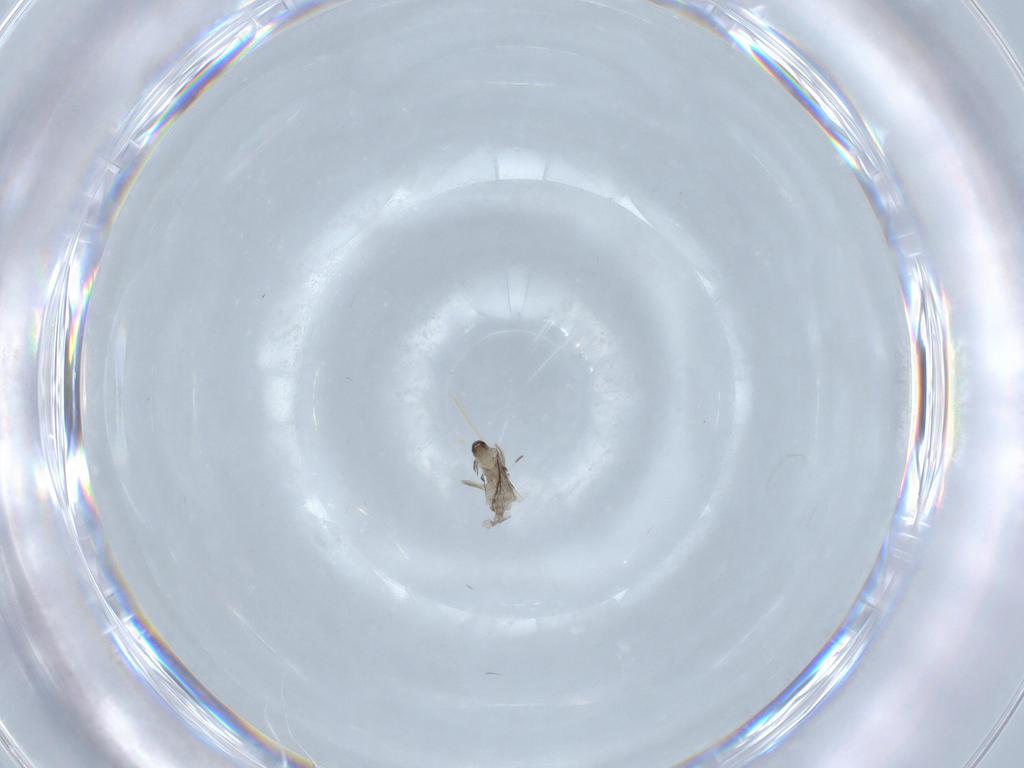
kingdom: Animalia
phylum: Arthropoda
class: Insecta
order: Diptera
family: Psychodidae
